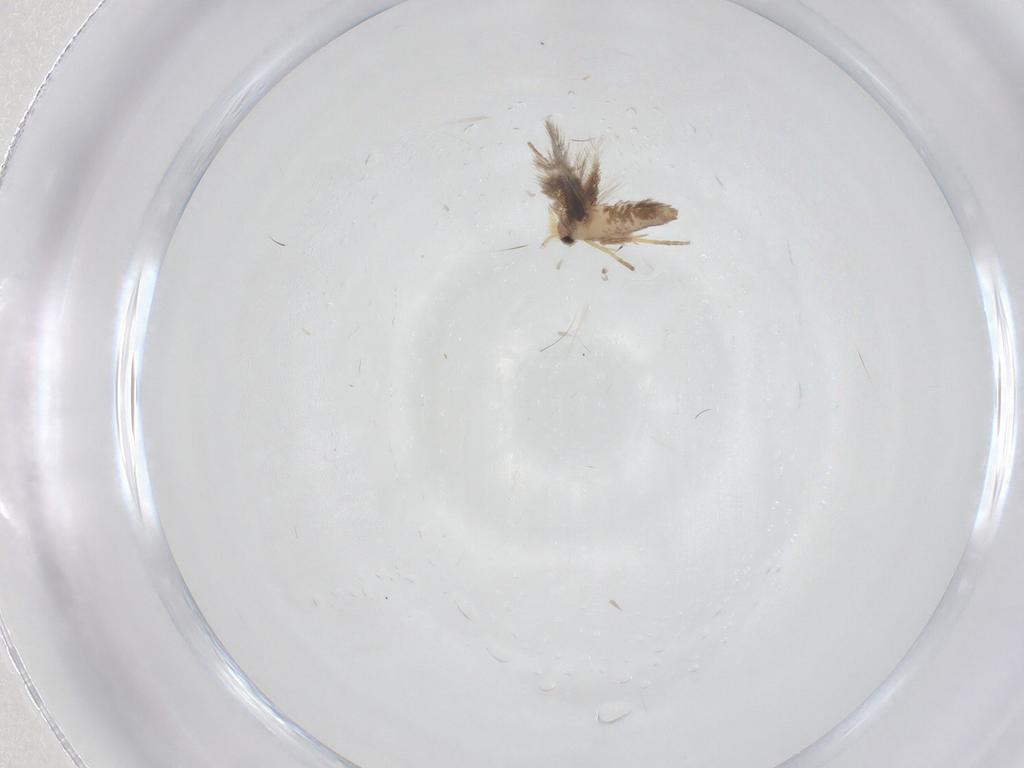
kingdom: Animalia
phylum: Arthropoda
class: Insecta
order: Lepidoptera
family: Nepticulidae
